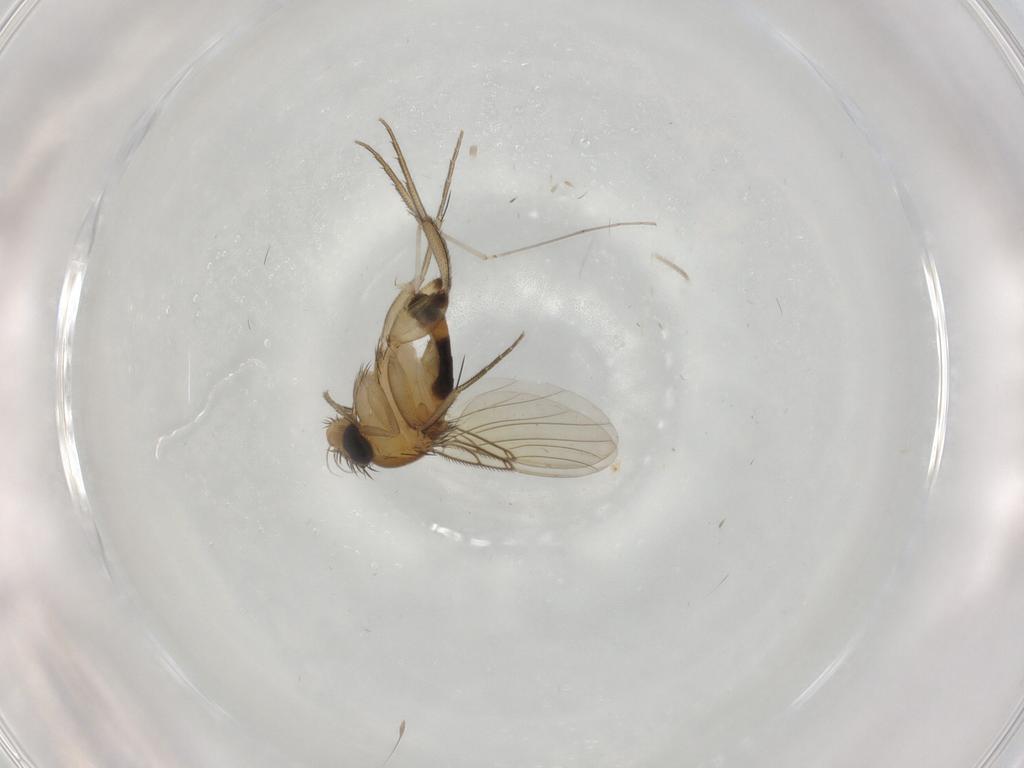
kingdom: Animalia
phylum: Arthropoda
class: Insecta
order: Diptera
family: Phoridae
